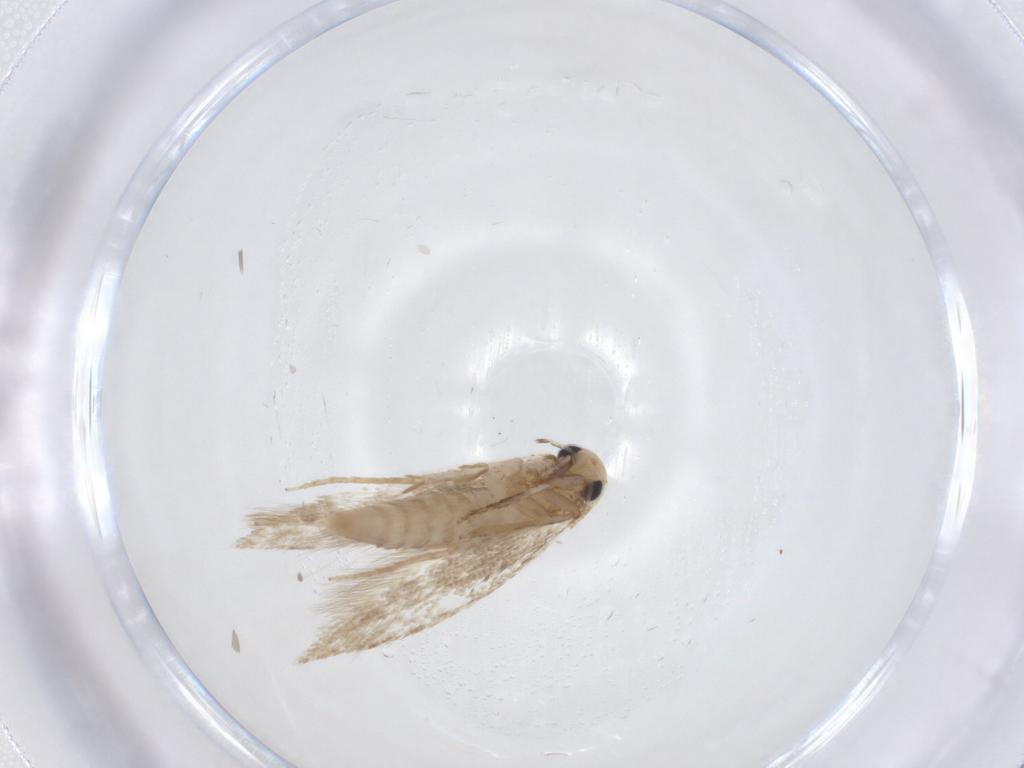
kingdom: Animalia
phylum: Arthropoda
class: Insecta
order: Lepidoptera
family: Tineidae
